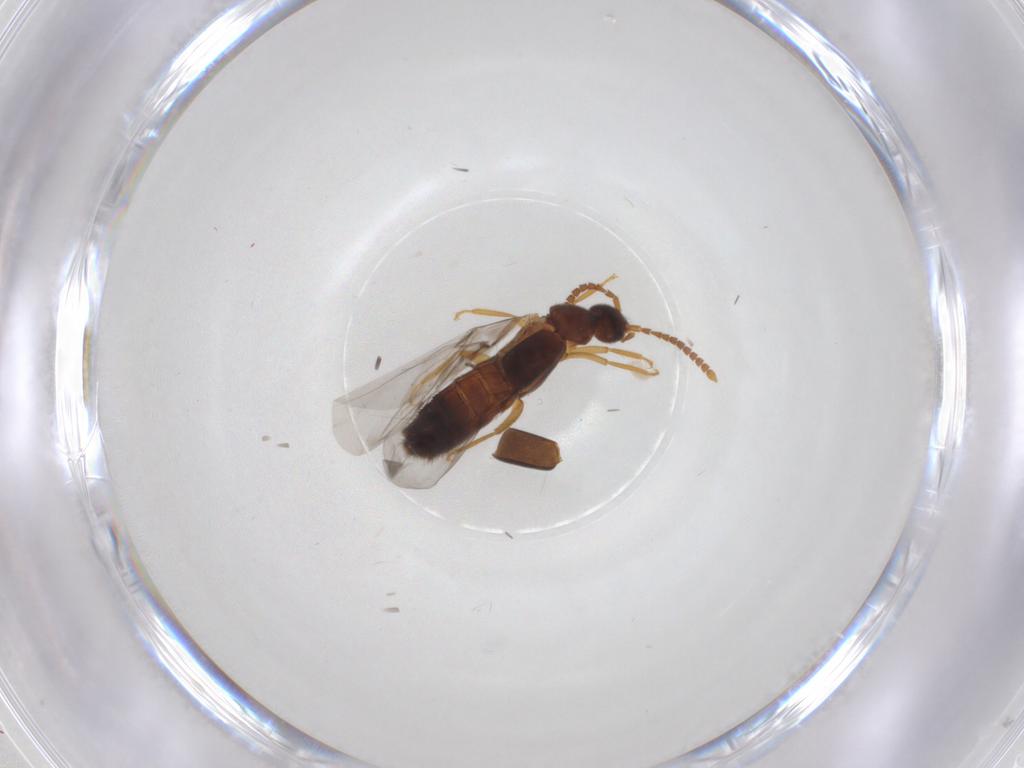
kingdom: Animalia
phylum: Arthropoda
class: Insecta
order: Coleoptera
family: Staphylinidae
